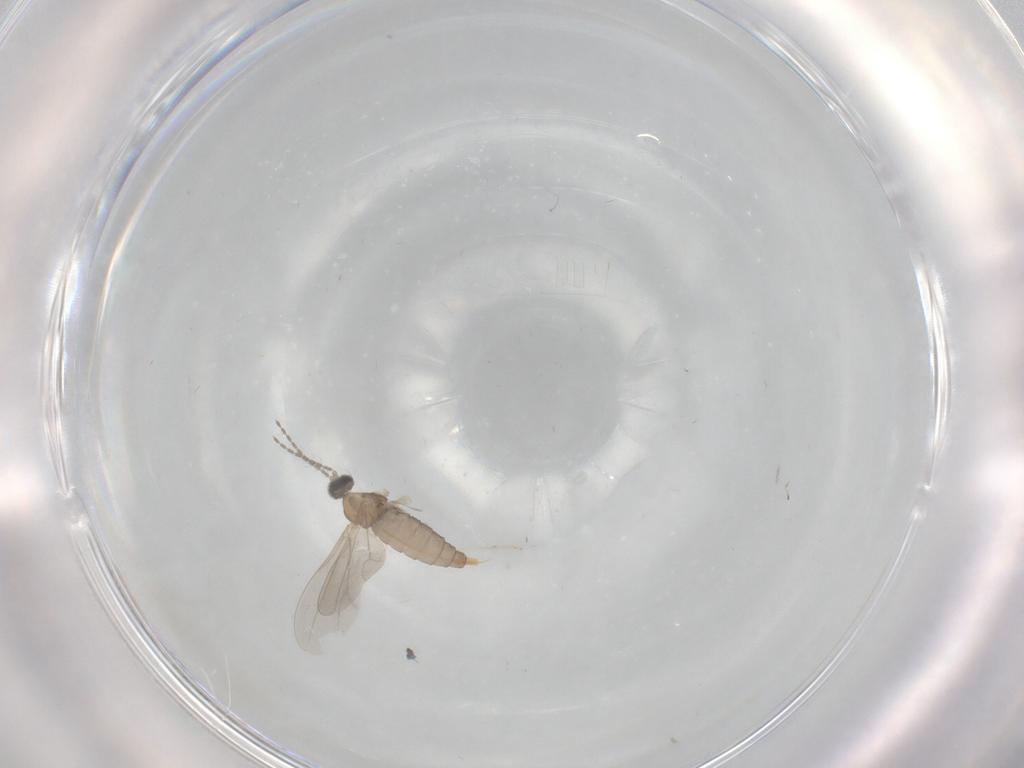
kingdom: Animalia
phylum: Arthropoda
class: Insecta
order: Diptera
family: Cecidomyiidae
